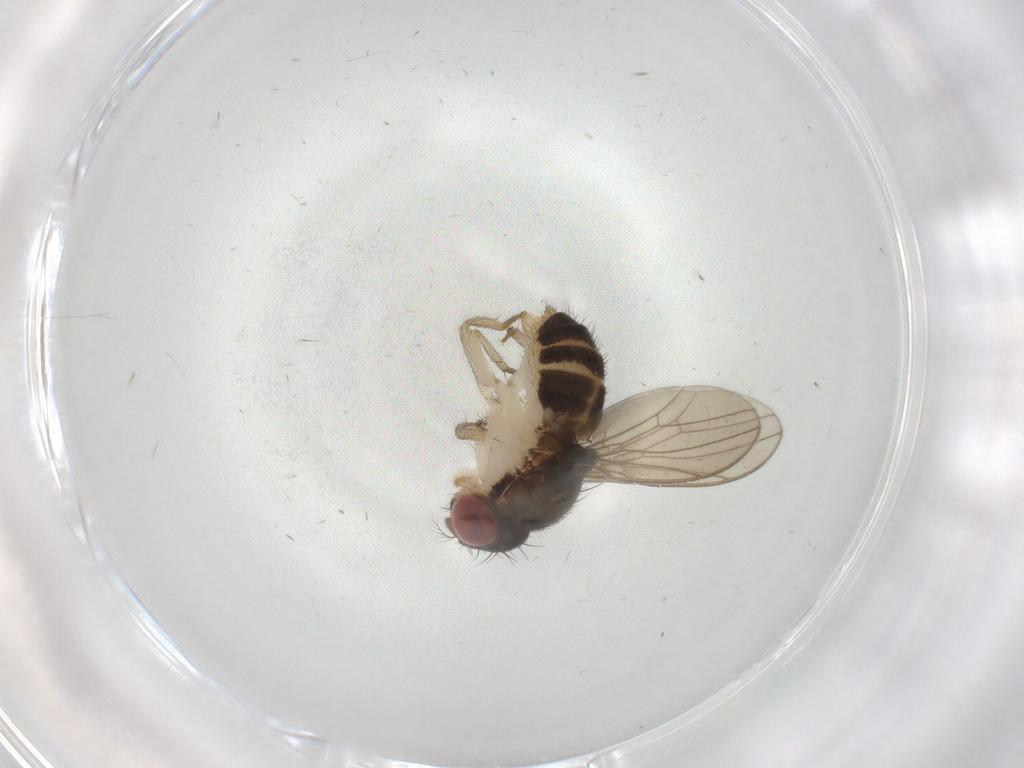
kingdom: Animalia
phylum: Arthropoda
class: Insecta
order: Diptera
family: Drosophilidae
